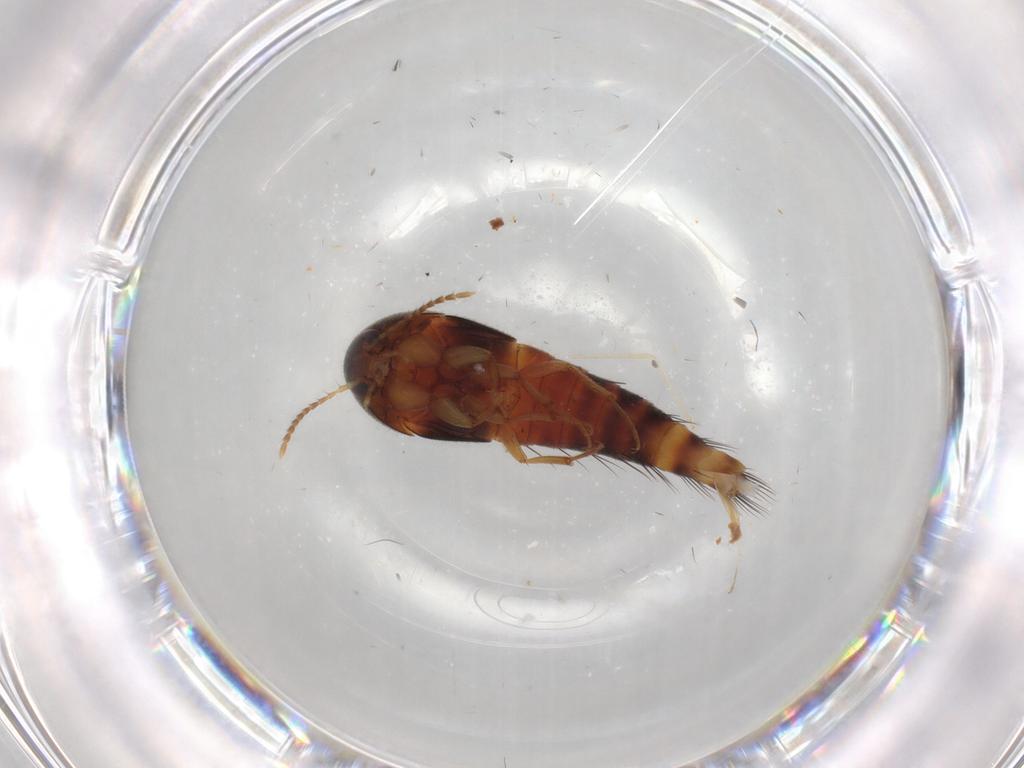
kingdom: Animalia
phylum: Arthropoda
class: Insecta
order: Coleoptera
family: Staphylinidae
